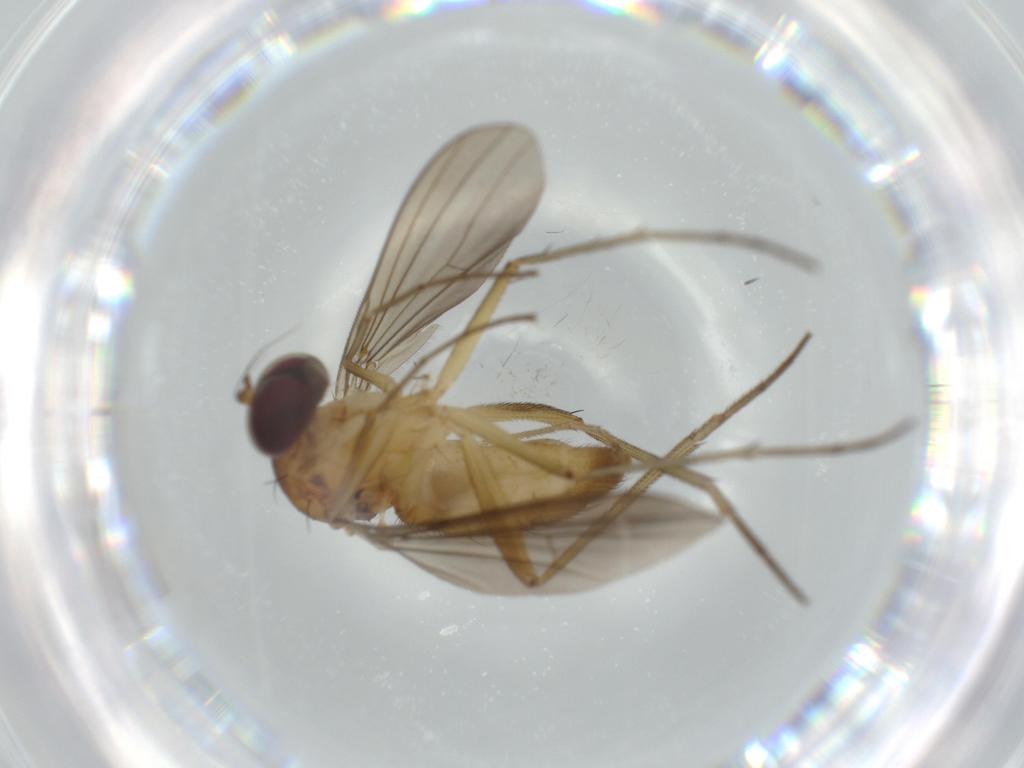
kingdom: Animalia
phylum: Arthropoda
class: Insecta
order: Diptera
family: Dolichopodidae
